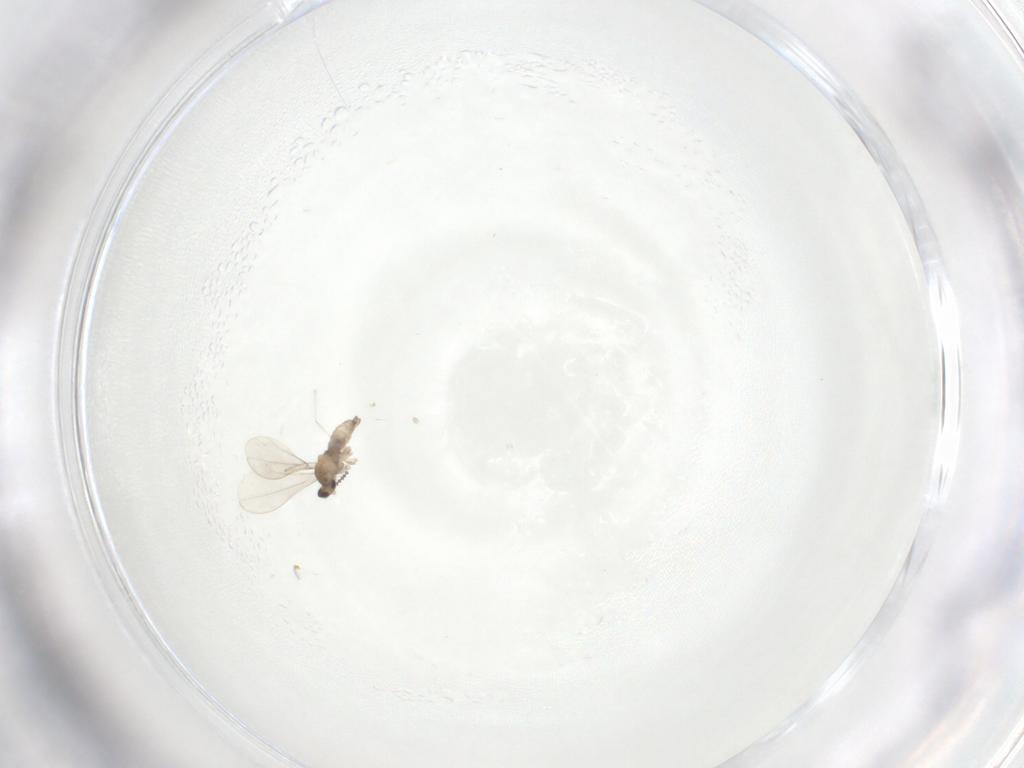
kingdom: Animalia
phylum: Arthropoda
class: Insecta
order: Diptera
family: Cecidomyiidae
